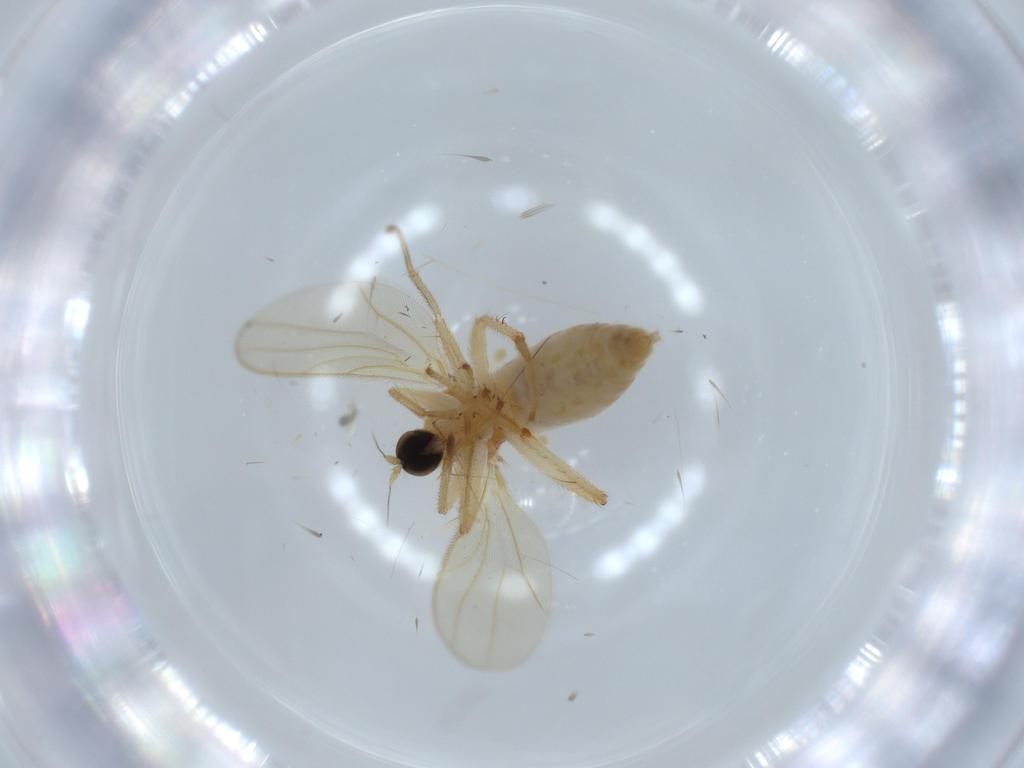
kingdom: Animalia
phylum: Arthropoda
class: Insecta
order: Diptera
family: Hybotidae
